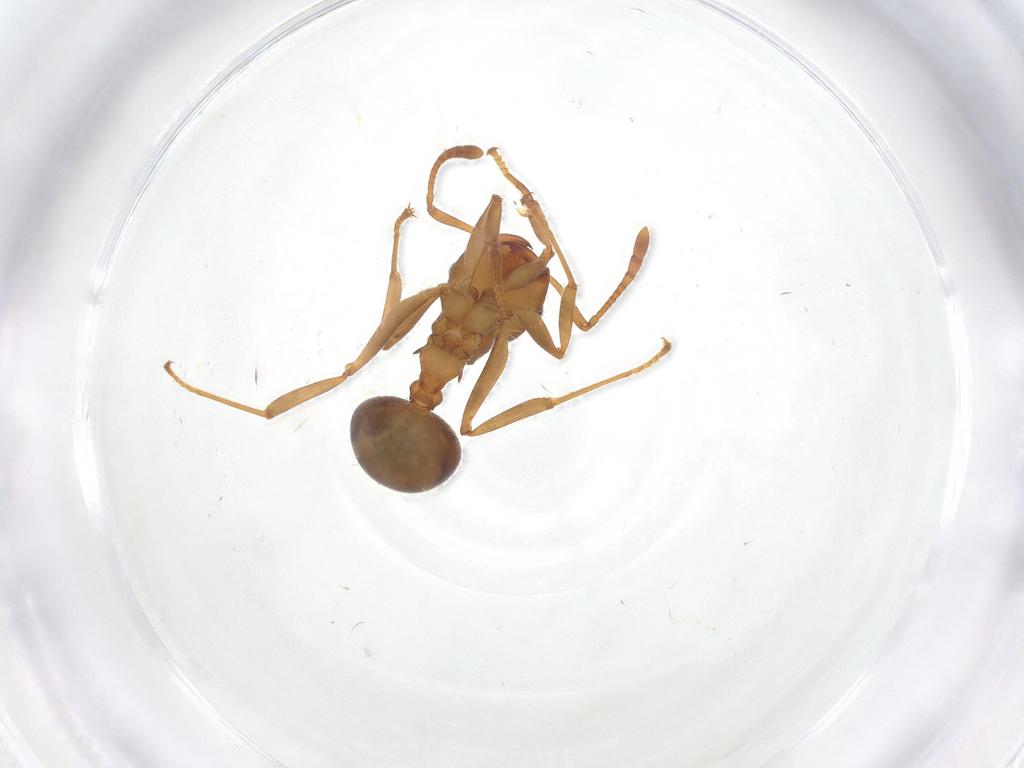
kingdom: Animalia
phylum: Arthropoda
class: Insecta
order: Hymenoptera
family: Formicidae
